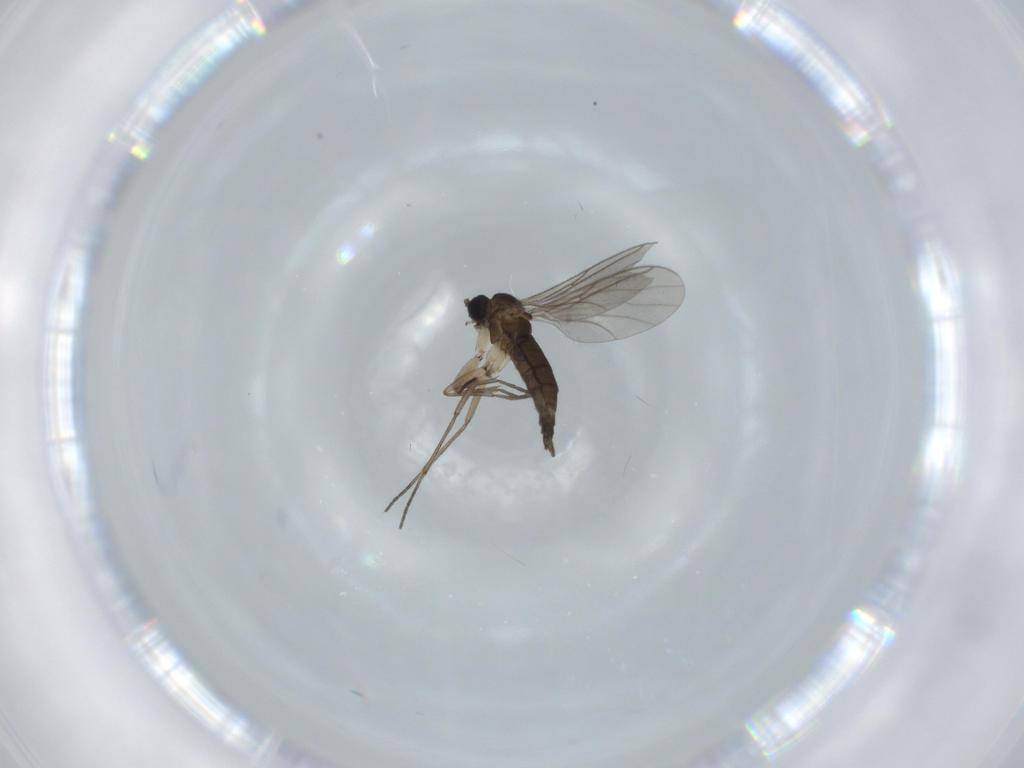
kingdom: Animalia
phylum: Arthropoda
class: Insecta
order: Diptera
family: Sciaridae
